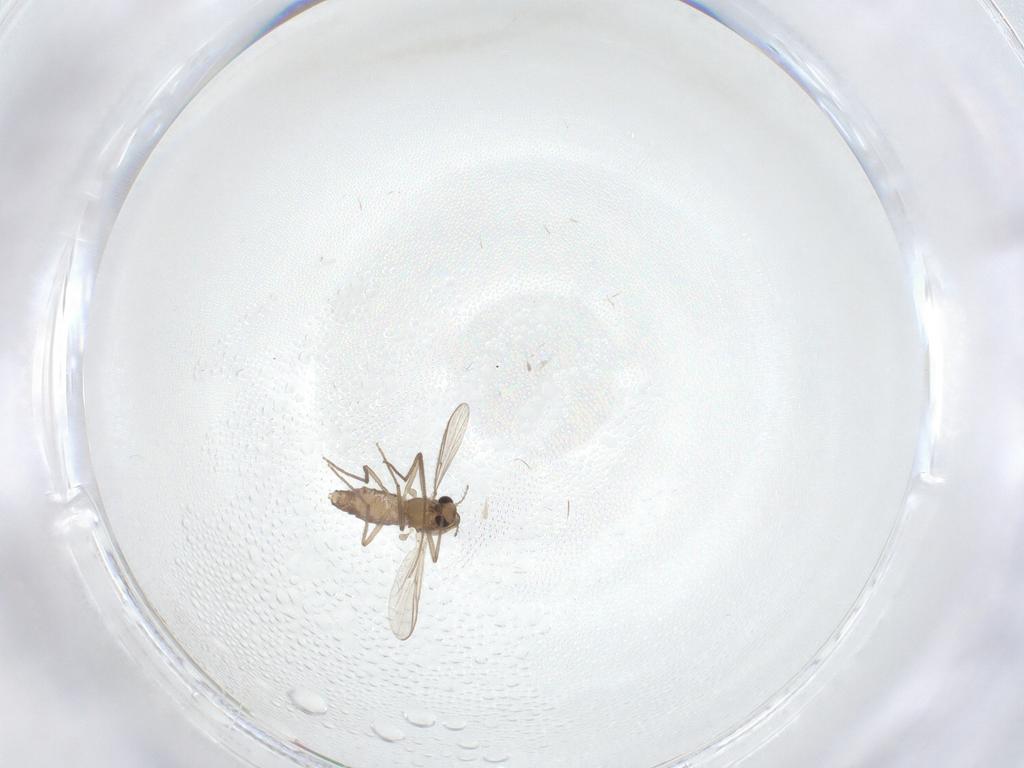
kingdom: Animalia
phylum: Arthropoda
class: Insecta
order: Diptera
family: Chironomidae
